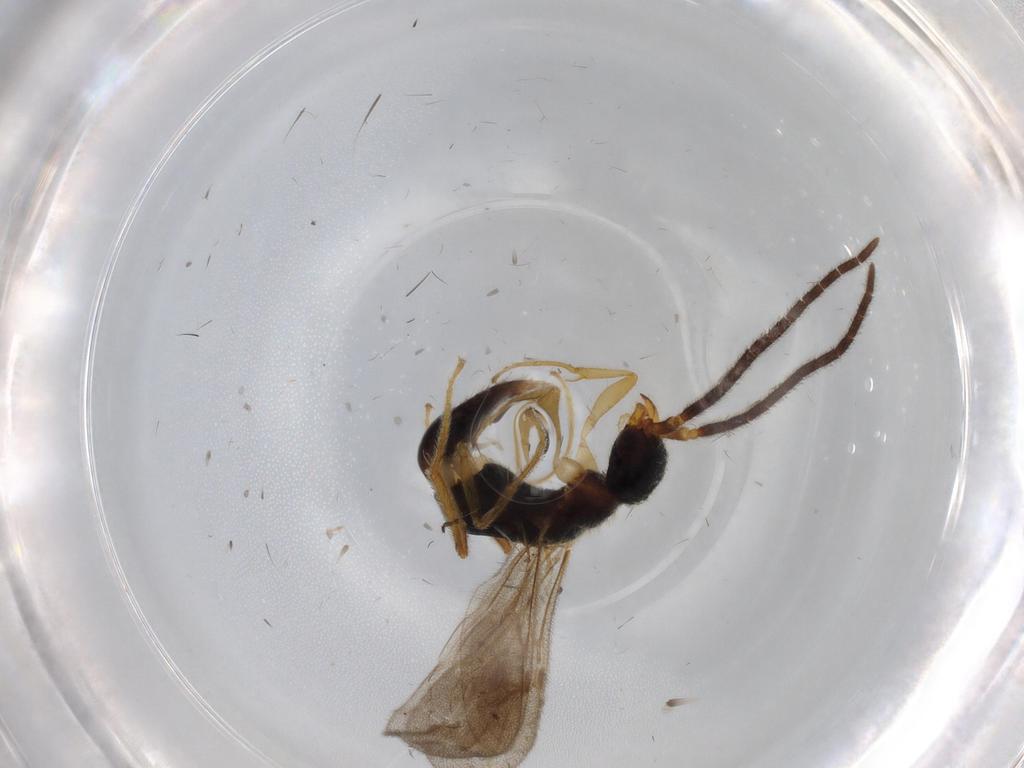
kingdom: Animalia
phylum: Arthropoda
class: Insecta
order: Hymenoptera
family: Bethylidae
